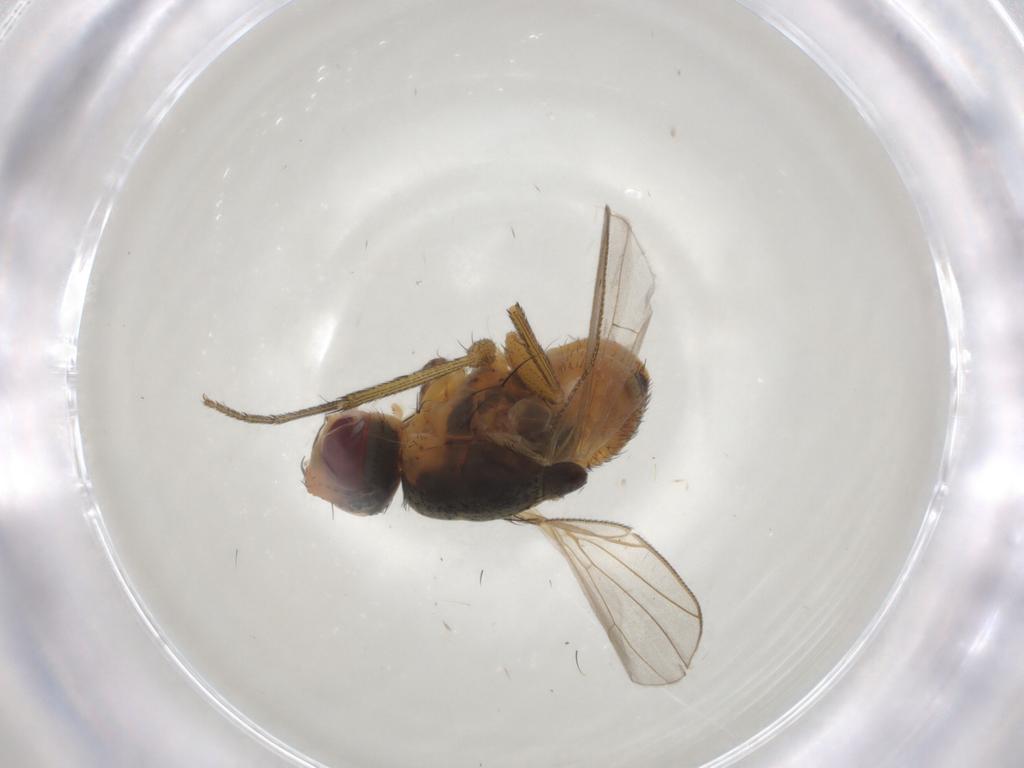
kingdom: Animalia
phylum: Arthropoda
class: Insecta
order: Diptera
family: Muscidae
